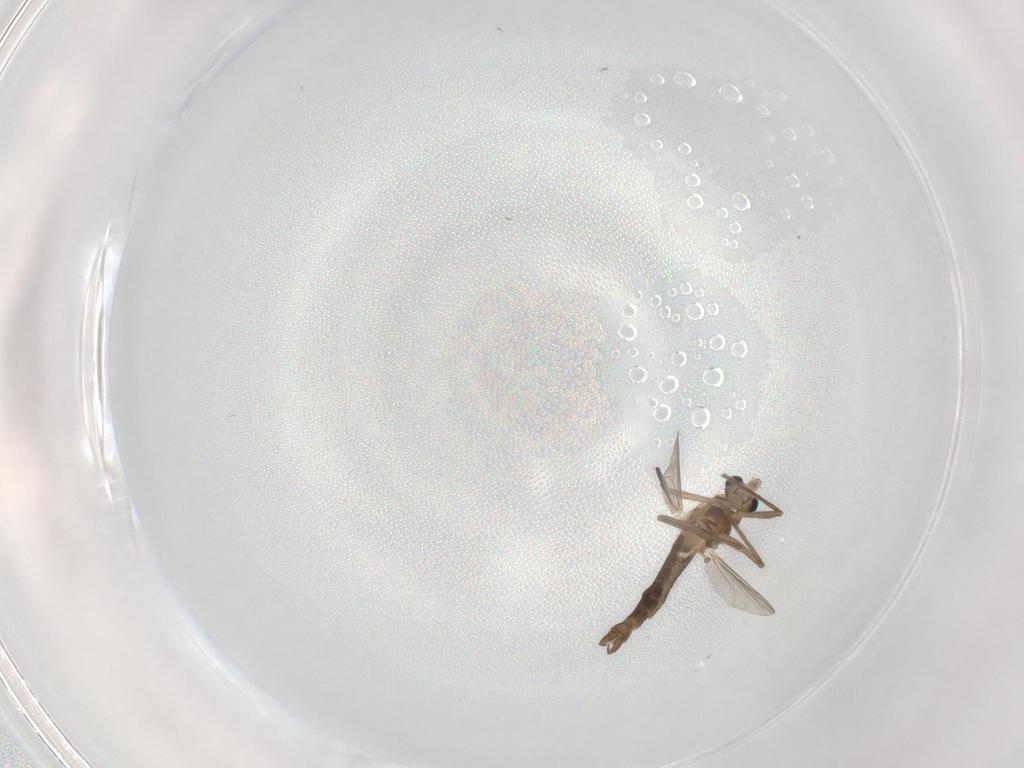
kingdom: Animalia
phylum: Arthropoda
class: Insecta
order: Diptera
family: Chironomidae
